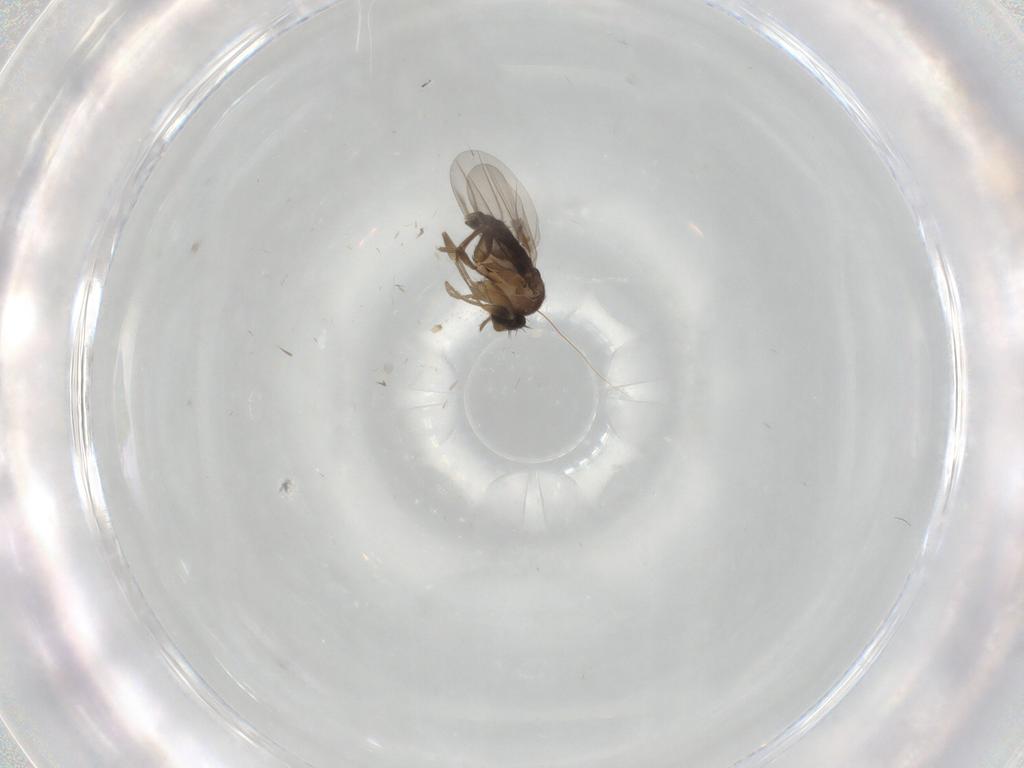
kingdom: Animalia
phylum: Arthropoda
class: Insecta
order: Diptera
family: Phoridae
